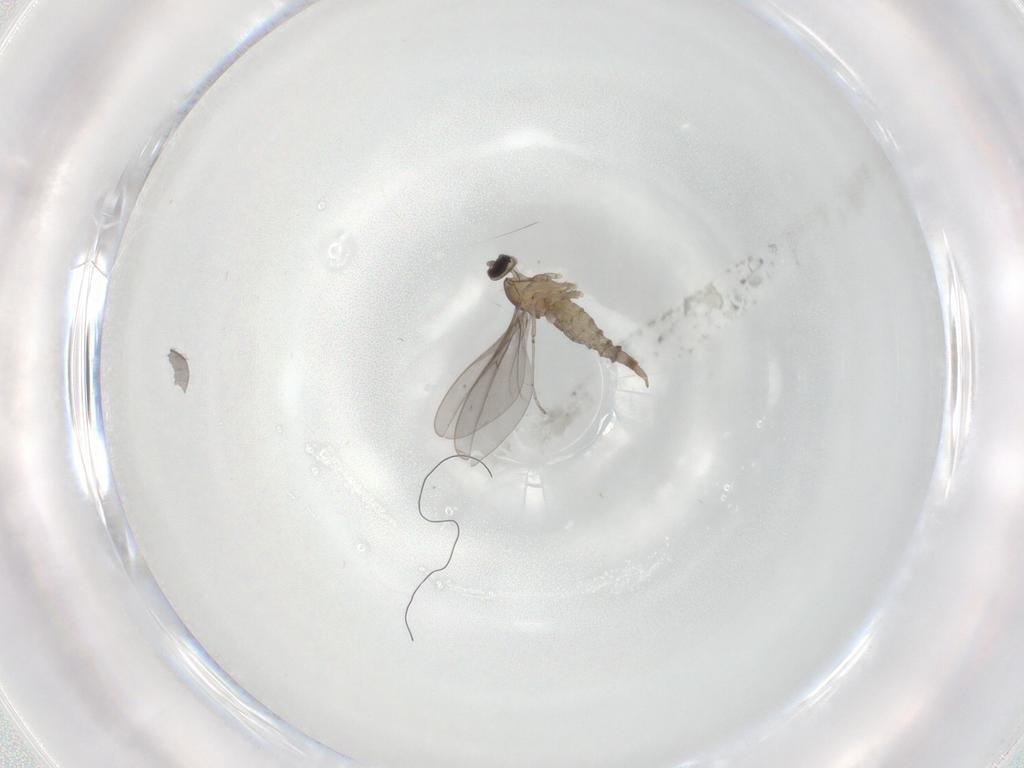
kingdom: Animalia
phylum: Arthropoda
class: Insecta
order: Diptera
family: Cecidomyiidae
